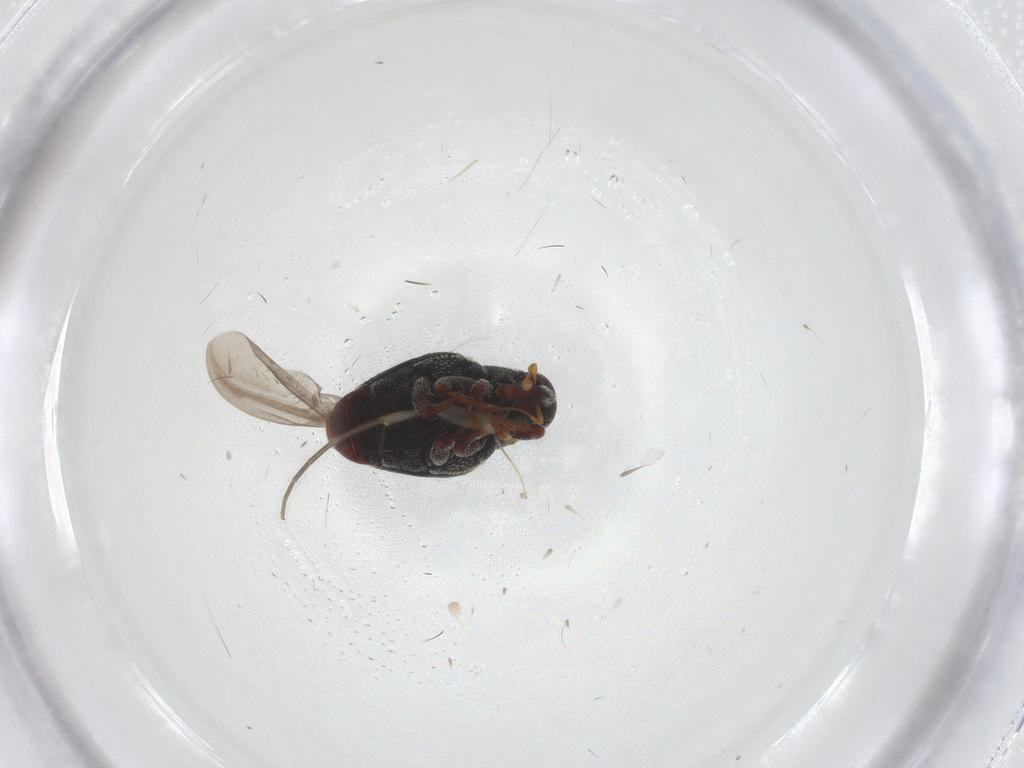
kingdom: Animalia
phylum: Arthropoda
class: Insecta
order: Coleoptera
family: Curculionidae
